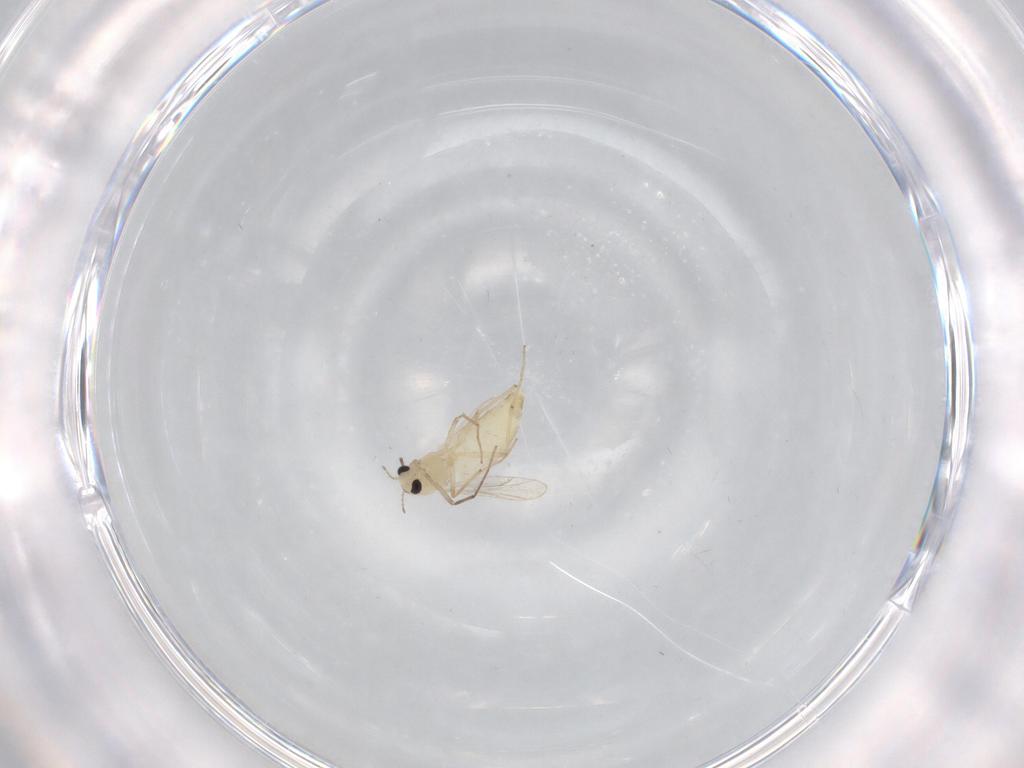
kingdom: Animalia
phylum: Arthropoda
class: Insecta
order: Diptera
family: Chironomidae
